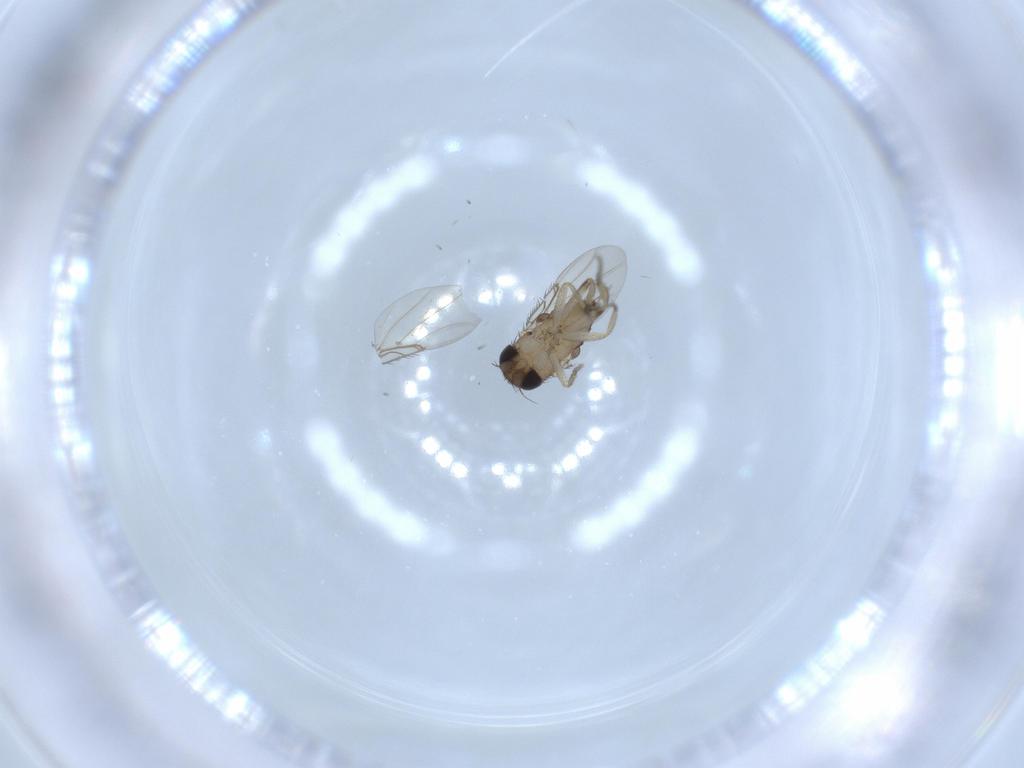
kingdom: Animalia
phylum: Arthropoda
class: Insecta
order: Diptera
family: Phoridae
